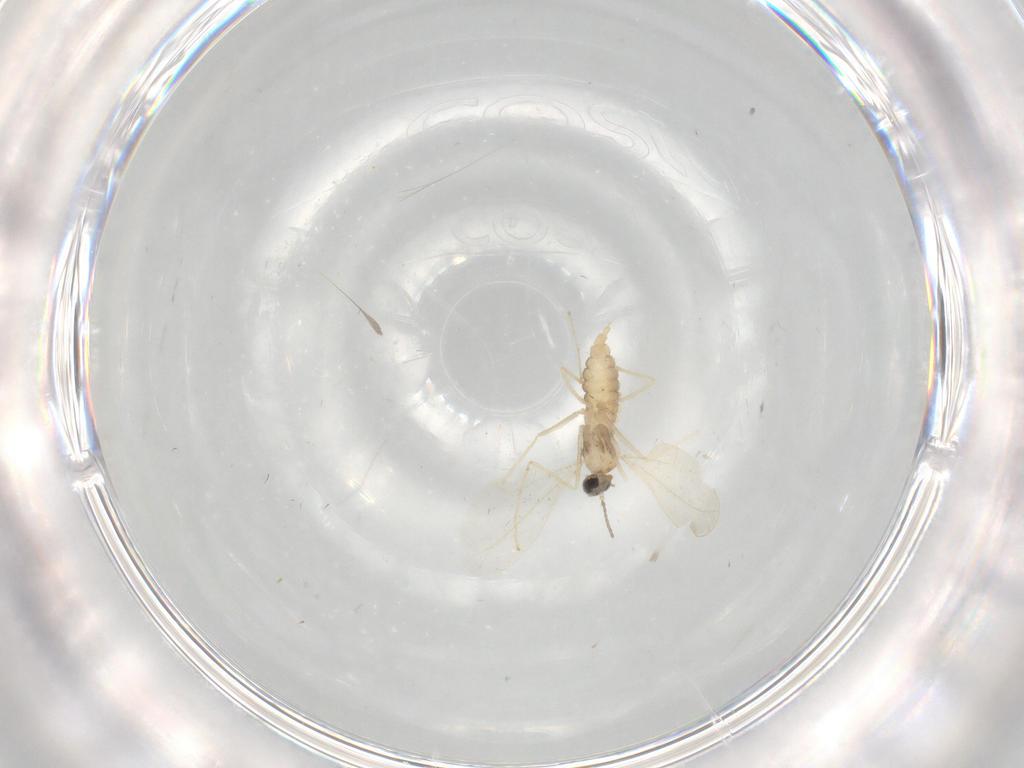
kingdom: Animalia
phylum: Arthropoda
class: Insecta
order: Diptera
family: Cecidomyiidae
